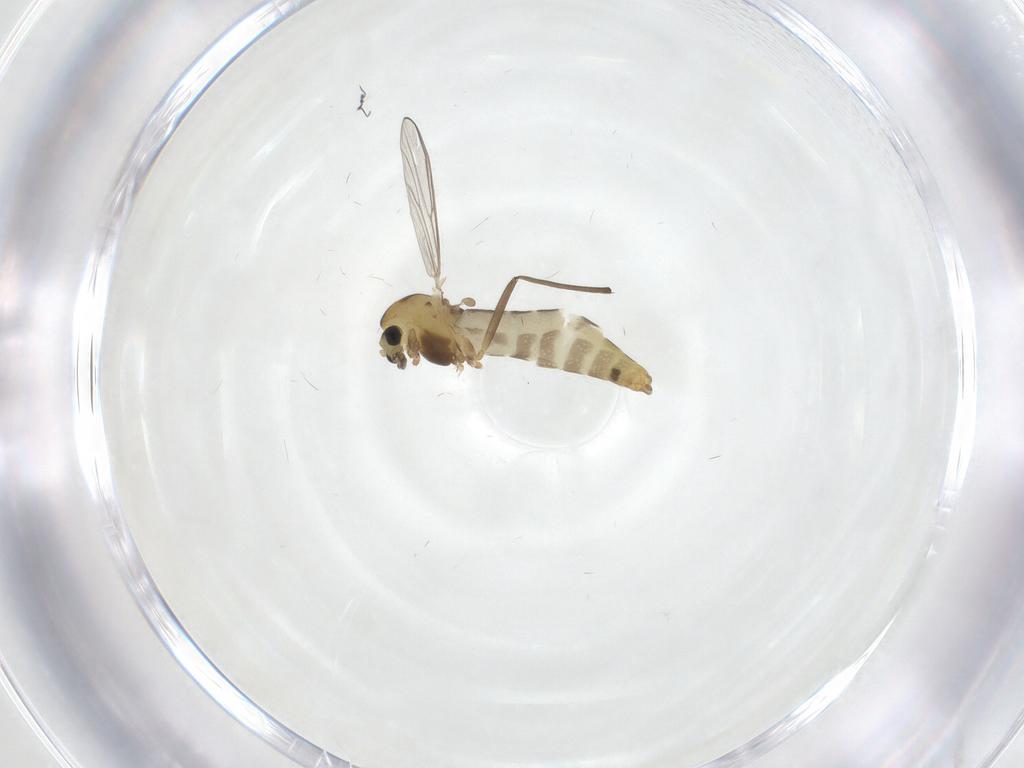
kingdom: Animalia
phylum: Arthropoda
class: Insecta
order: Diptera
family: Chironomidae
